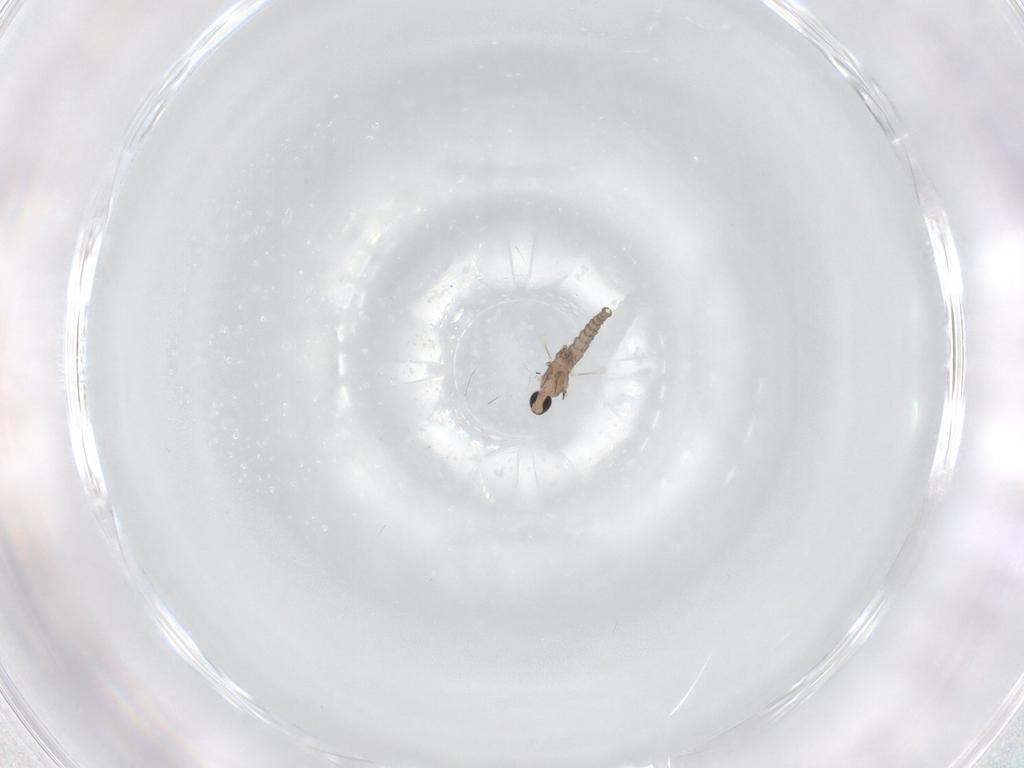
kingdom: Animalia
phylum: Arthropoda
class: Insecta
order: Diptera
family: Cecidomyiidae
